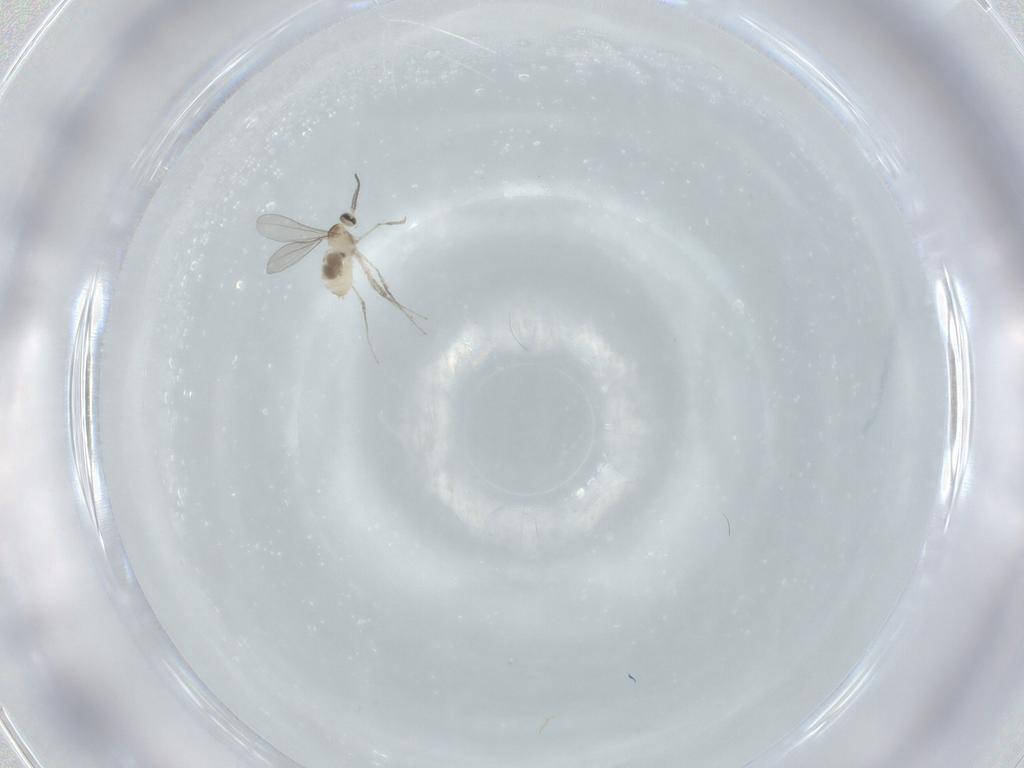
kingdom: Animalia
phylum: Arthropoda
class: Insecta
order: Diptera
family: Cecidomyiidae
